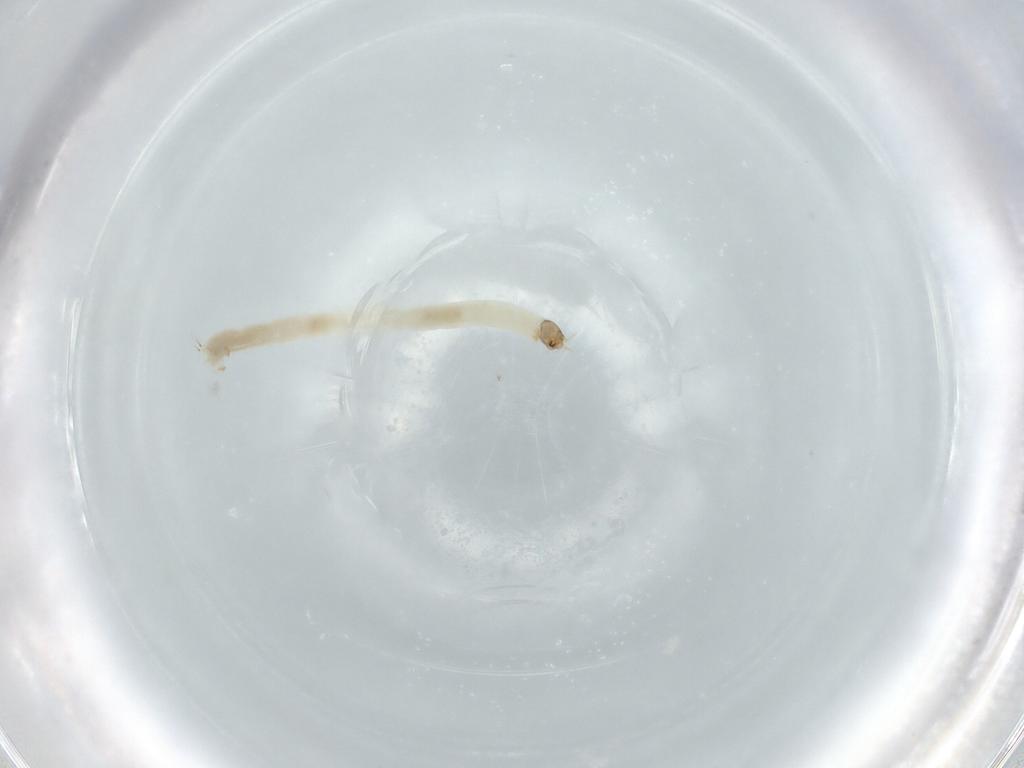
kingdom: Animalia
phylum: Arthropoda
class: Insecta
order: Diptera
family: Chironomidae
